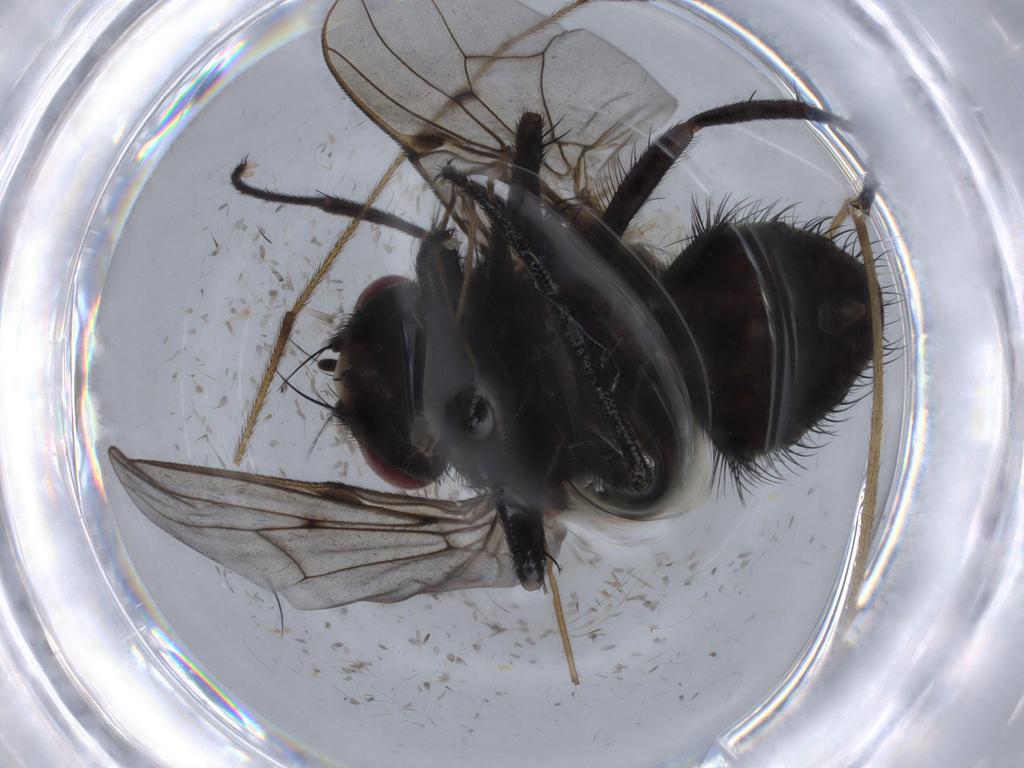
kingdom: Animalia
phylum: Arthropoda
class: Insecta
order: Diptera
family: Muscidae
